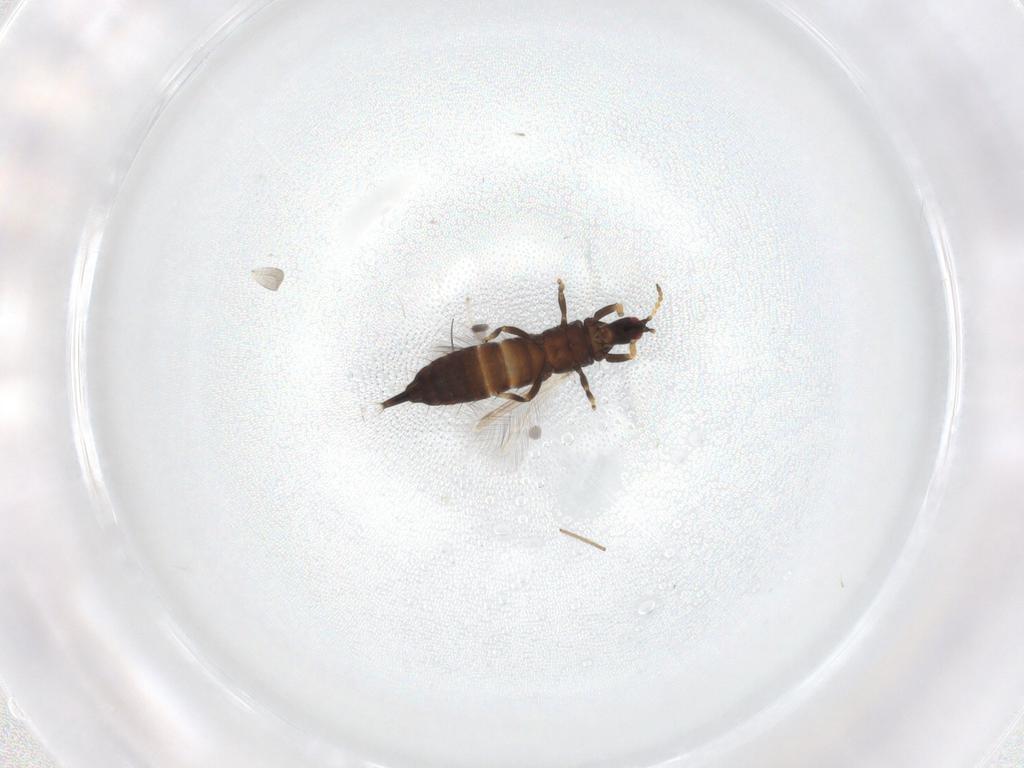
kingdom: Animalia
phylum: Arthropoda
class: Insecta
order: Thysanoptera
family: Phlaeothripidae
